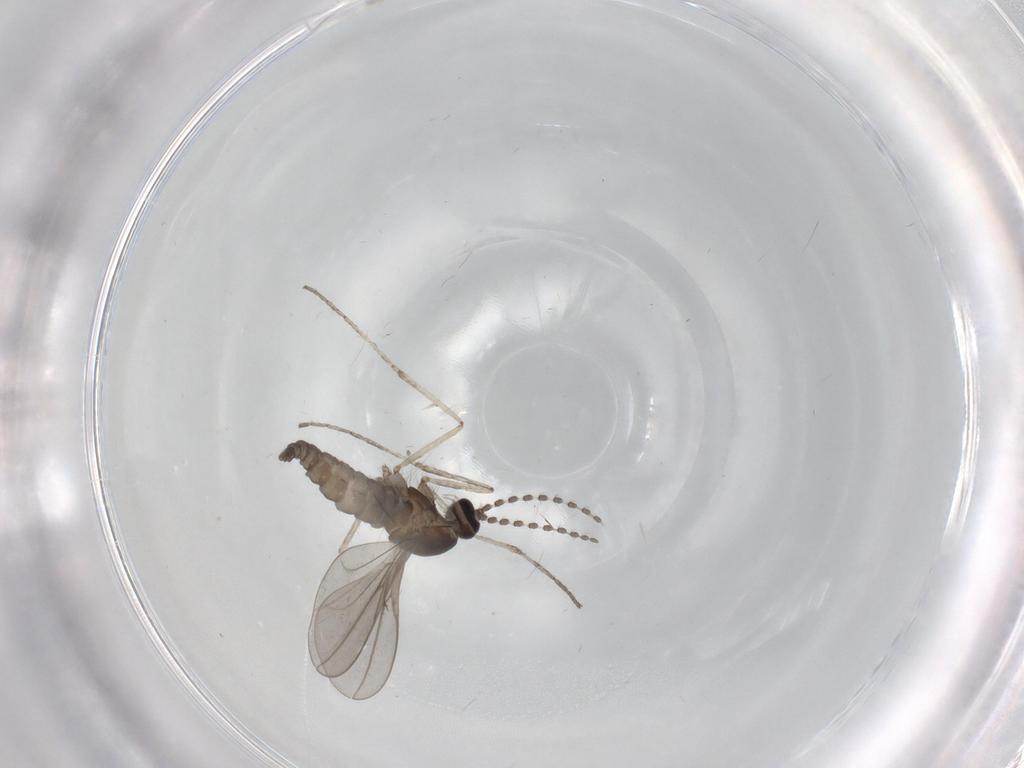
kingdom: Animalia
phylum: Arthropoda
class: Insecta
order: Diptera
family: Cecidomyiidae
